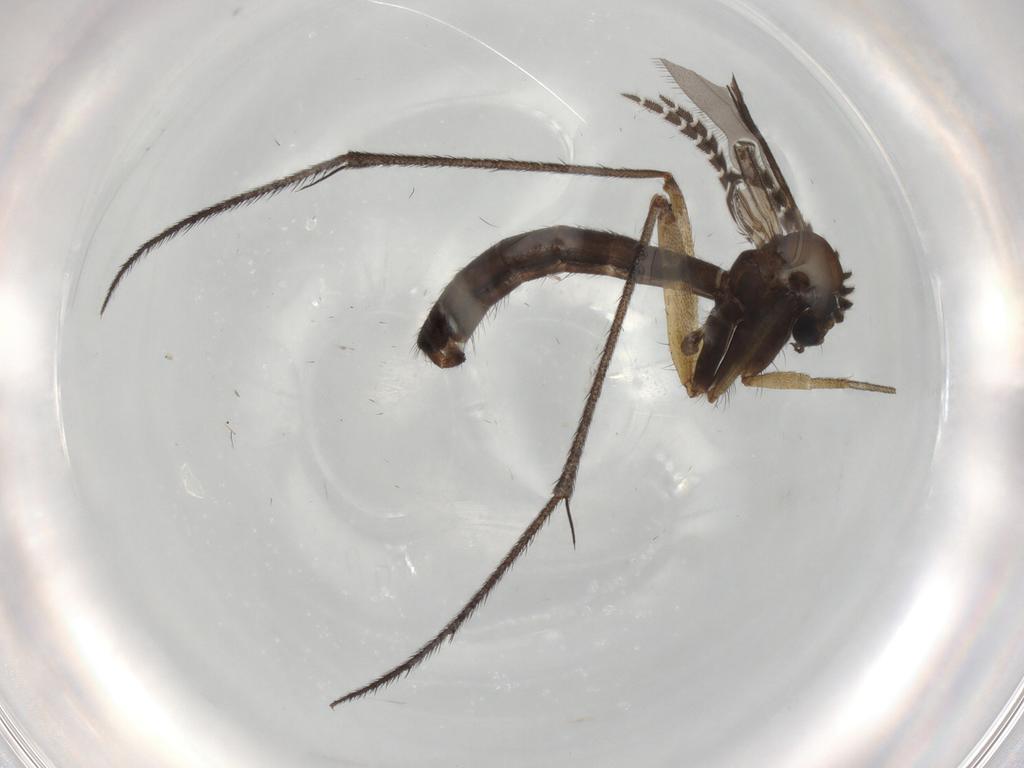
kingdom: Animalia
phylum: Arthropoda
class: Insecta
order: Diptera
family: Cecidomyiidae
